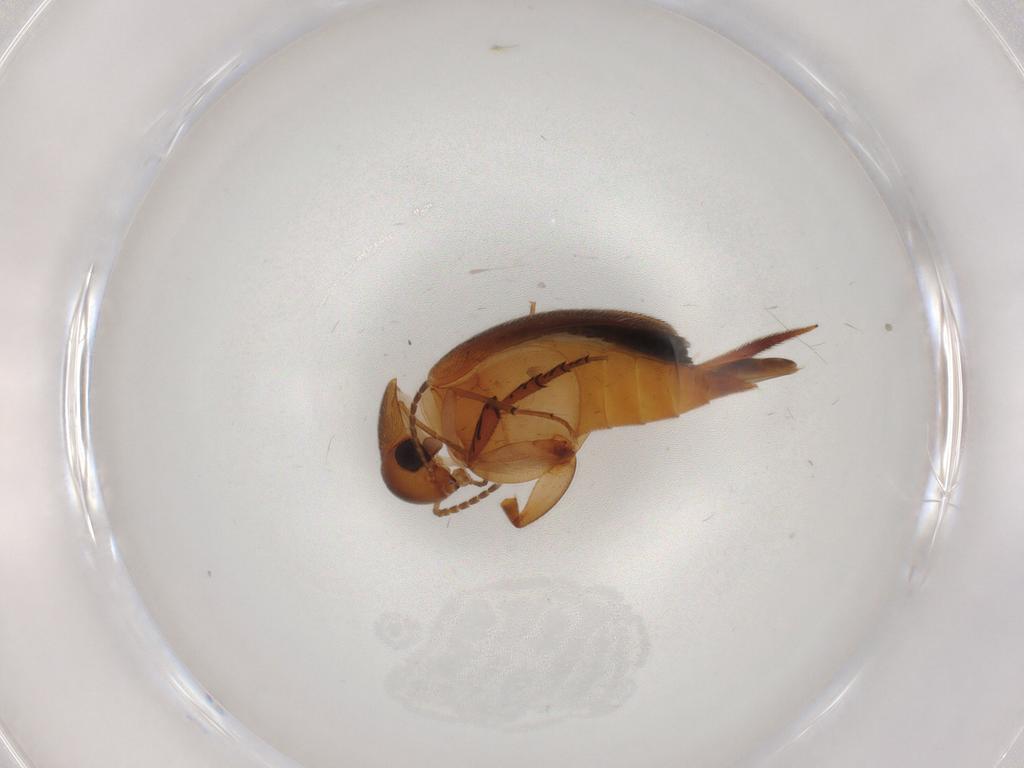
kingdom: Animalia
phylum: Arthropoda
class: Insecta
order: Coleoptera
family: Mordellidae
